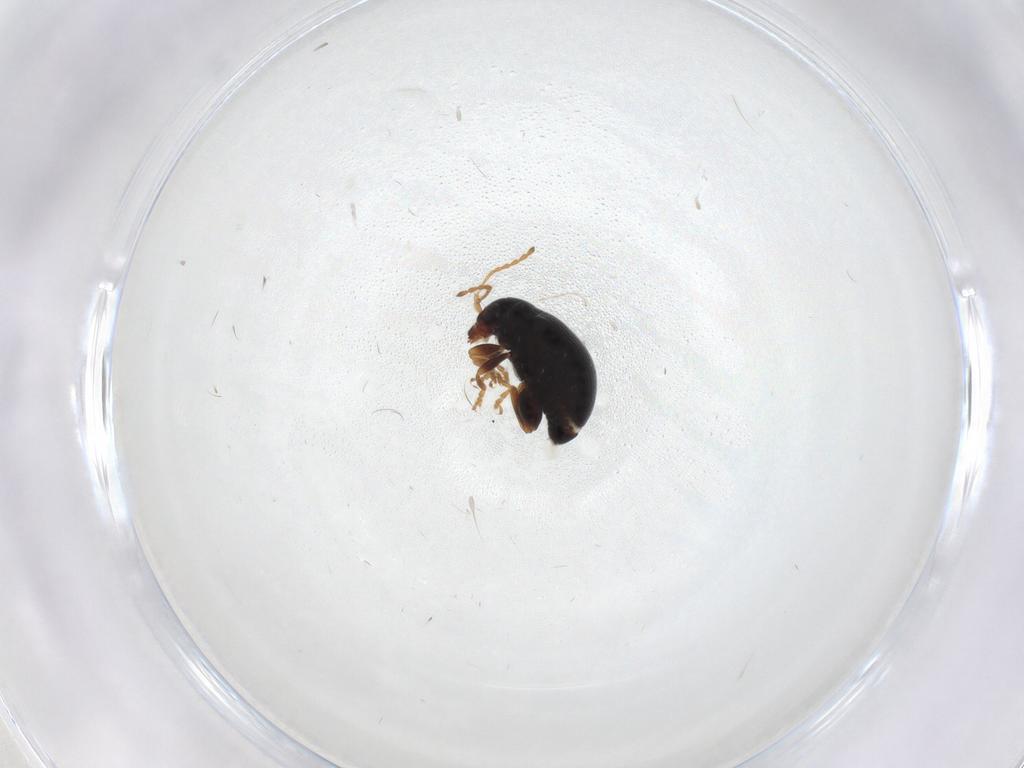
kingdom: Animalia
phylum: Arthropoda
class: Insecta
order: Coleoptera
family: Chrysomelidae
